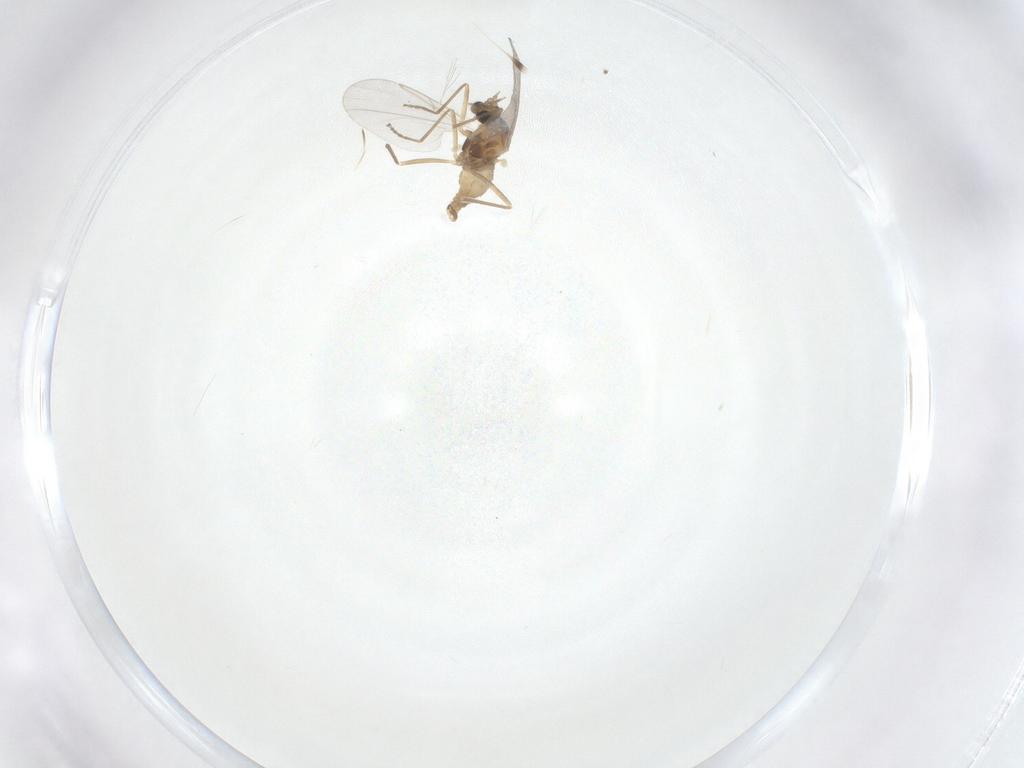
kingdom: Animalia
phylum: Arthropoda
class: Insecta
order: Diptera
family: Cecidomyiidae
